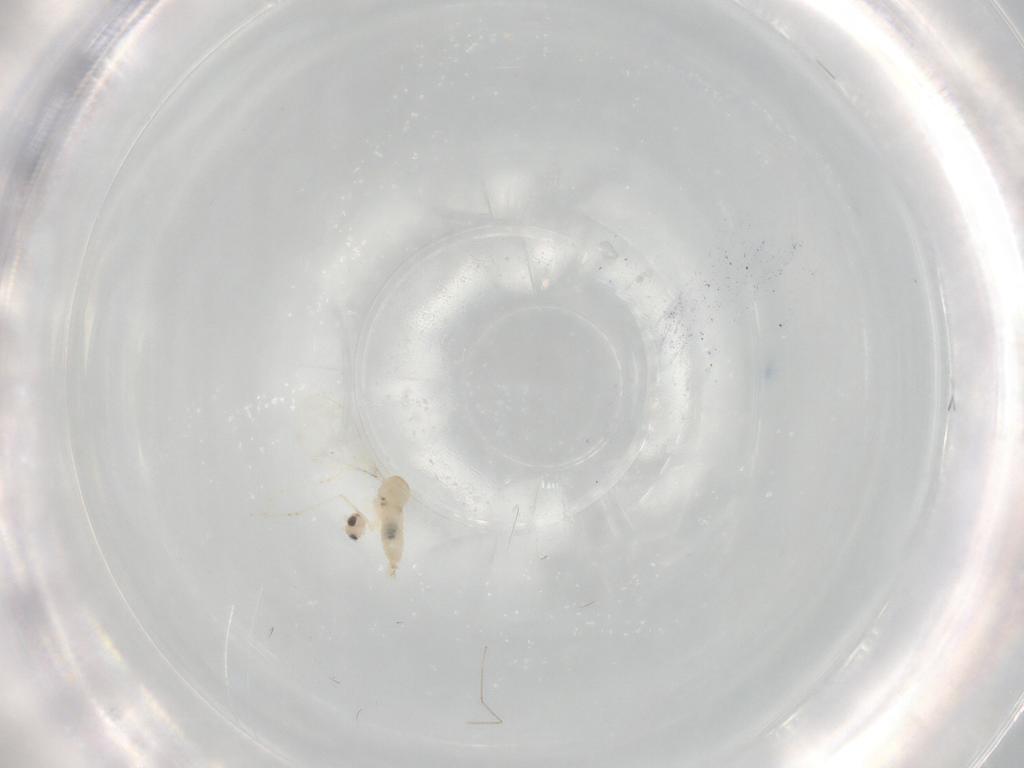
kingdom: Animalia
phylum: Arthropoda
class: Insecta
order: Diptera
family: Cecidomyiidae
